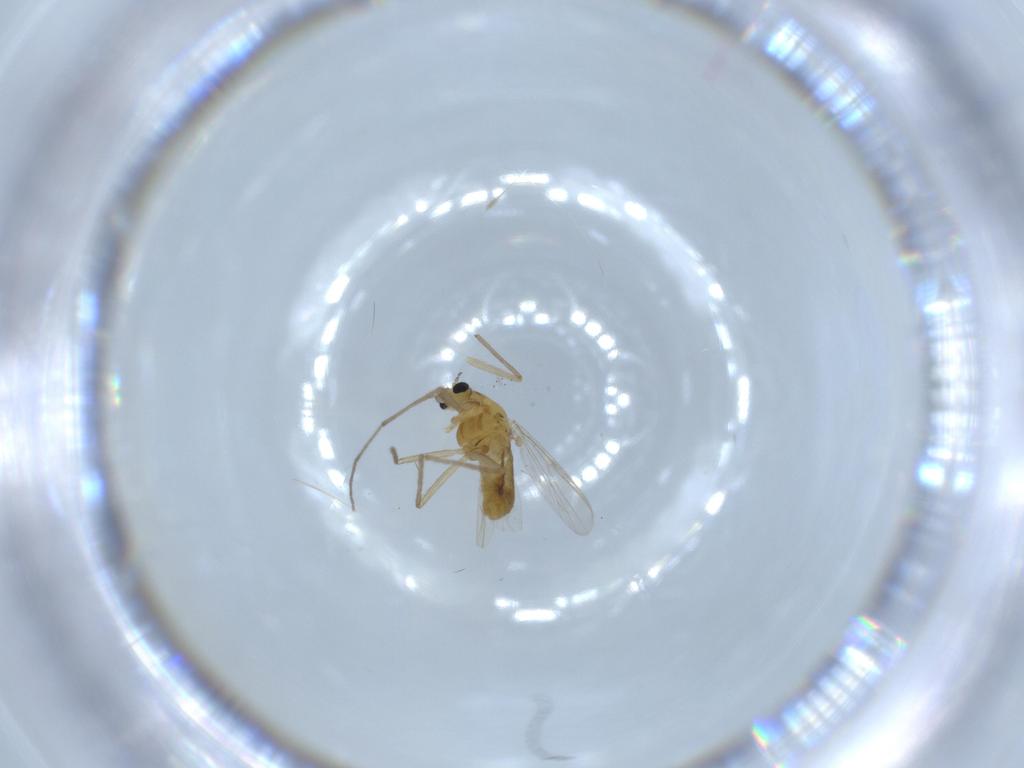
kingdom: Animalia
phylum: Arthropoda
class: Insecta
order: Diptera
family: Chironomidae
